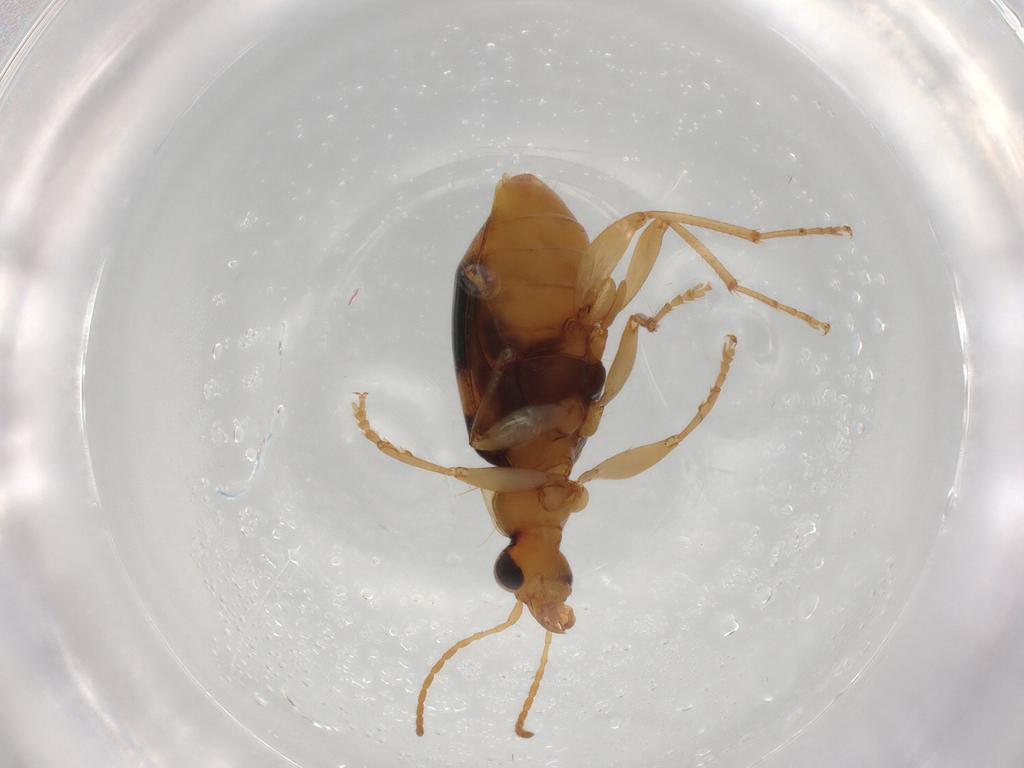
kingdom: Animalia
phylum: Arthropoda
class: Insecta
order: Coleoptera
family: Carabidae
